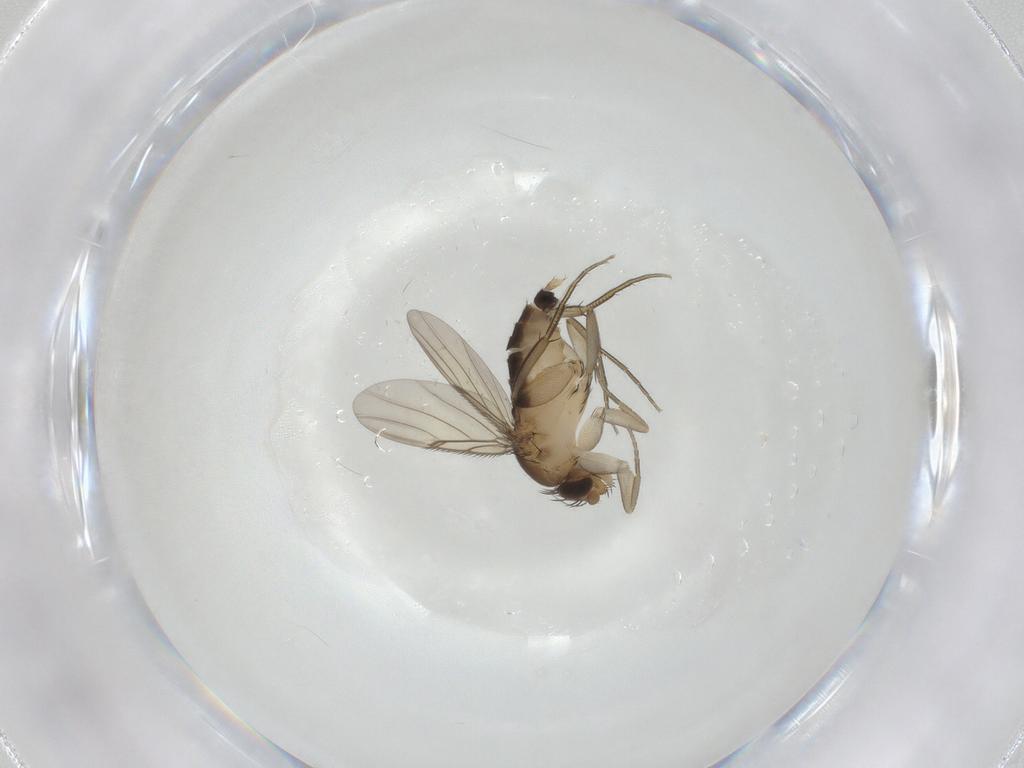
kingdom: Animalia
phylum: Arthropoda
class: Insecta
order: Diptera
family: Cecidomyiidae
